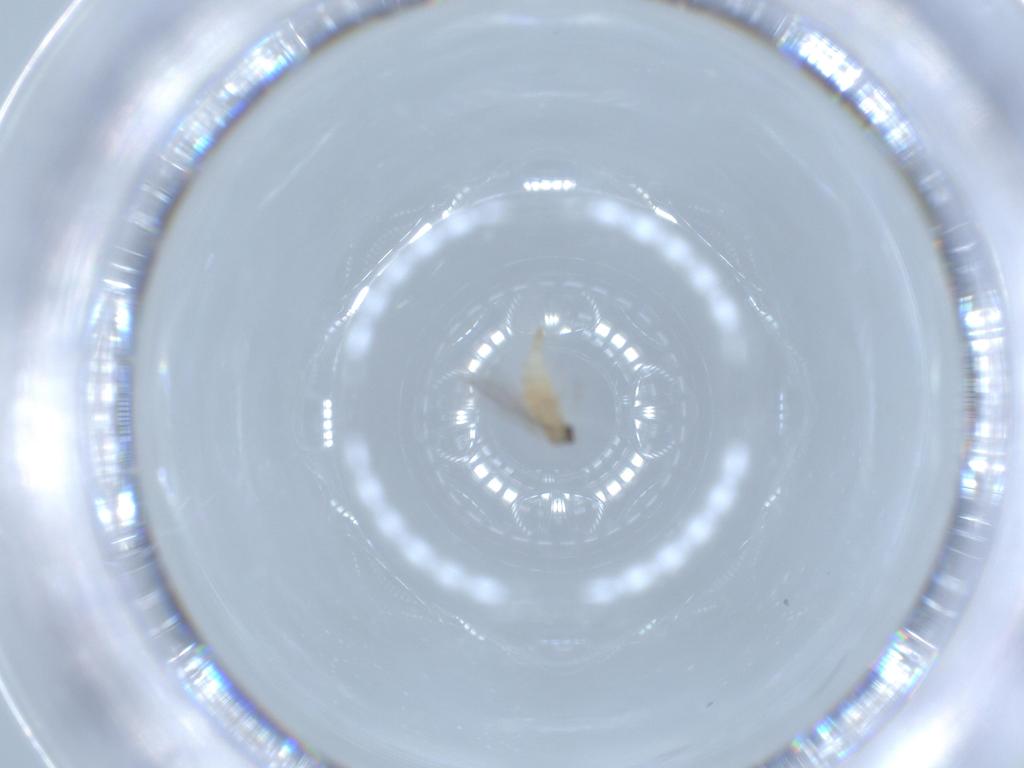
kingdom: Animalia
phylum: Arthropoda
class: Insecta
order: Diptera
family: Cecidomyiidae
